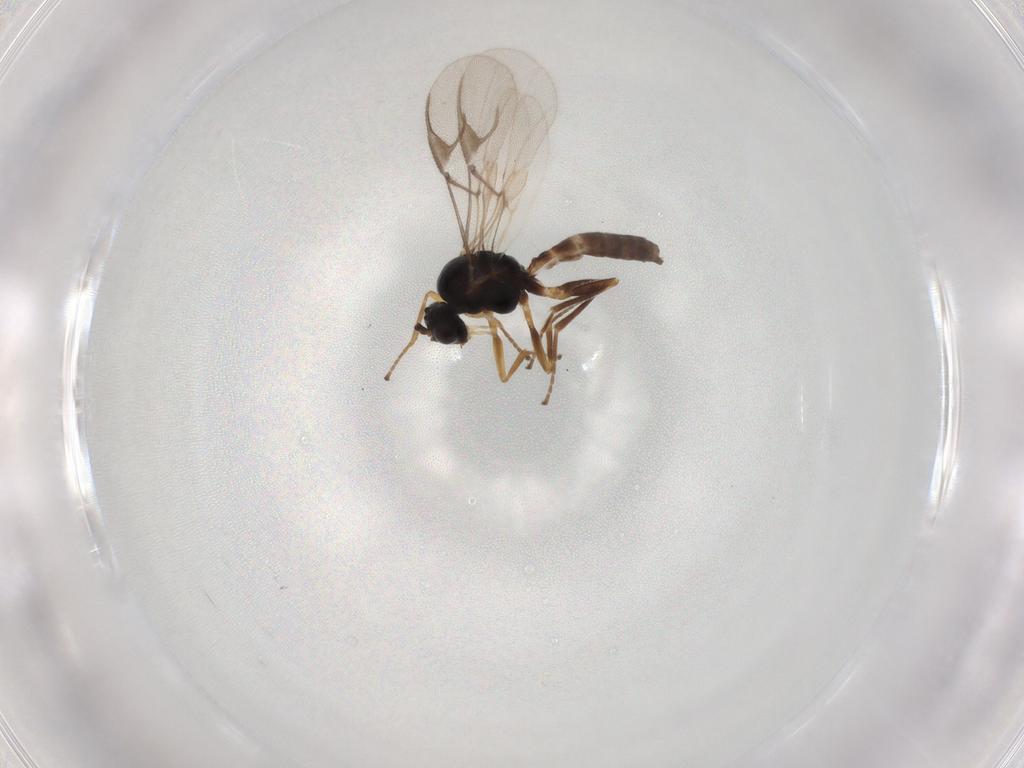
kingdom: Animalia
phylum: Arthropoda
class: Insecta
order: Hymenoptera
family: Braconidae
